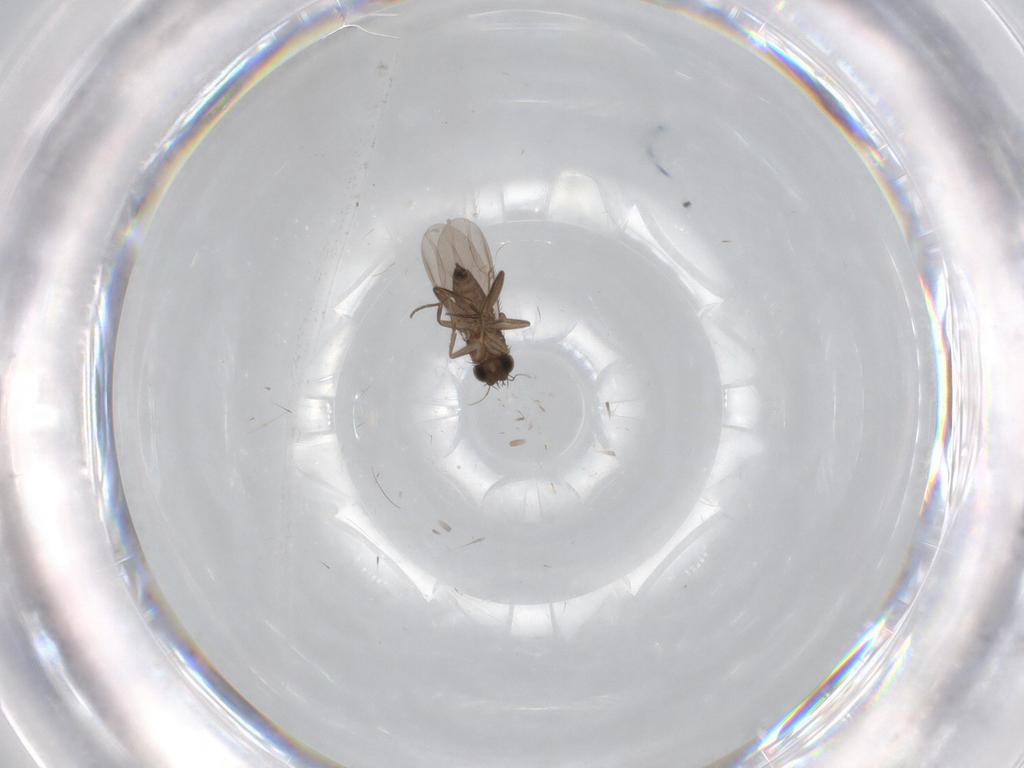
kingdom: Animalia
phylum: Arthropoda
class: Insecta
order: Diptera
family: Phoridae
